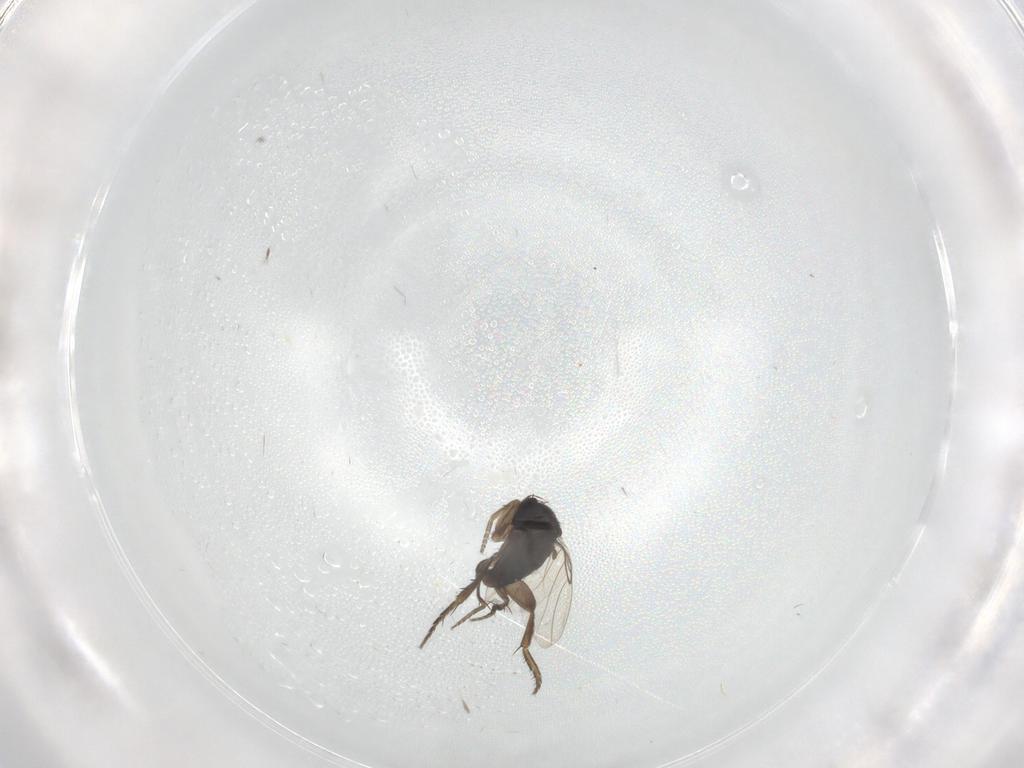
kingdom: Animalia
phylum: Arthropoda
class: Insecta
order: Diptera
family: Phoridae
